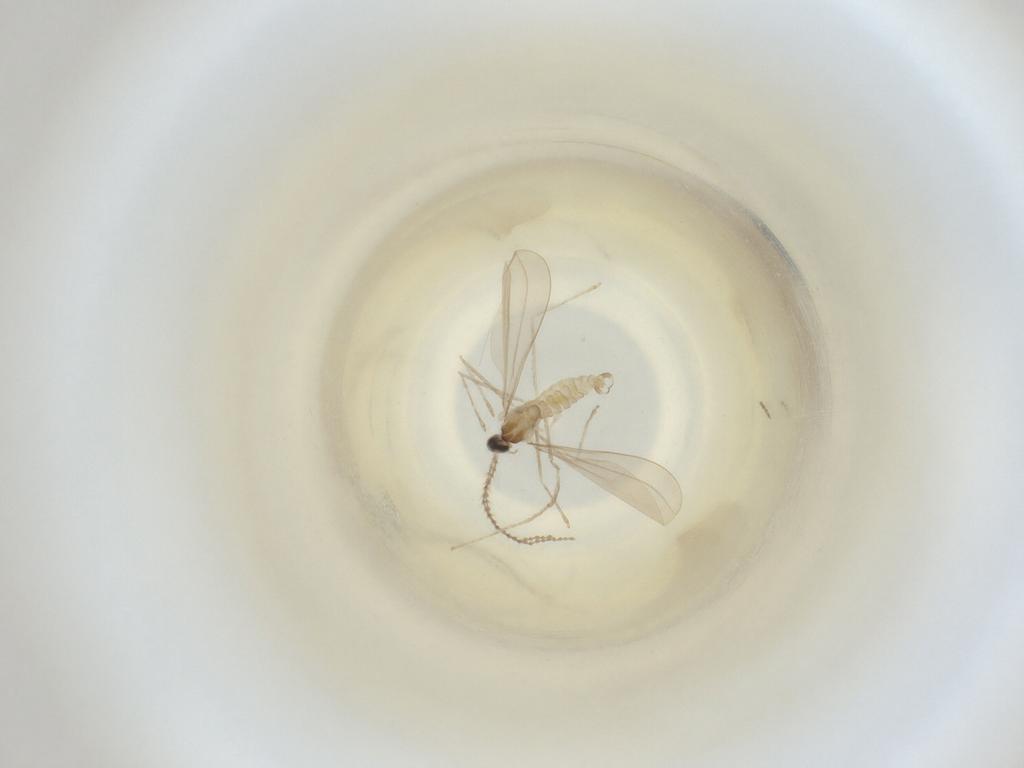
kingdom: Animalia
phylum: Arthropoda
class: Insecta
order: Diptera
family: Cecidomyiidae
